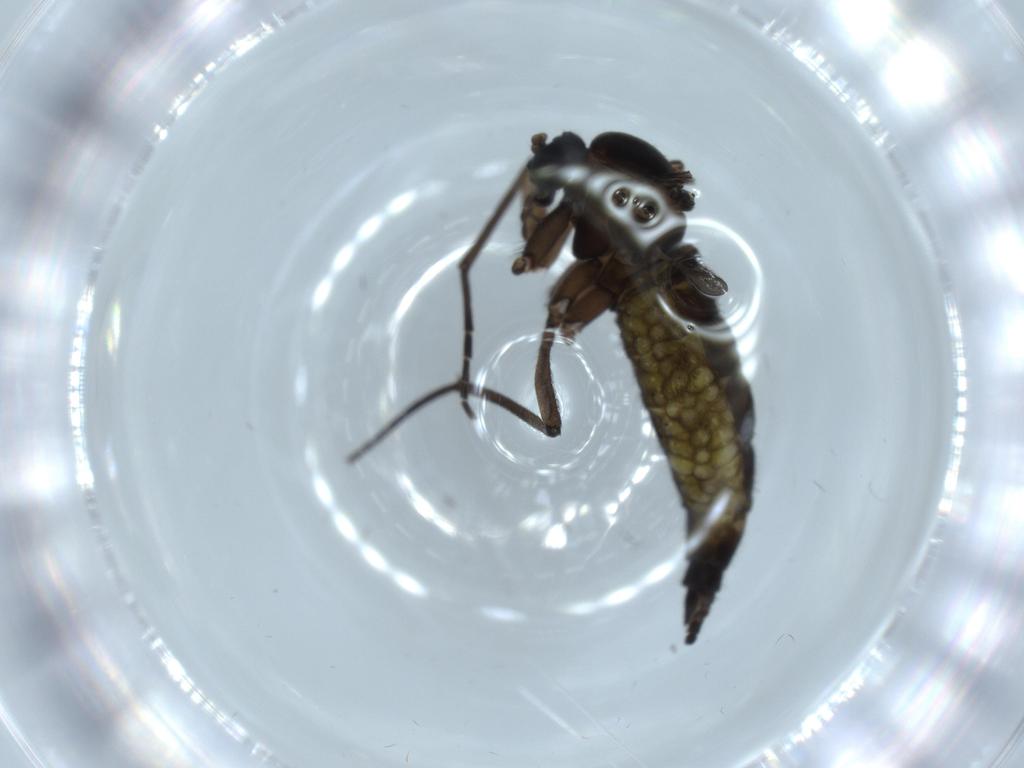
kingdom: Animalia
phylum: Arthropoda
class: Insecta
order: Diptera
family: Sciaridae
